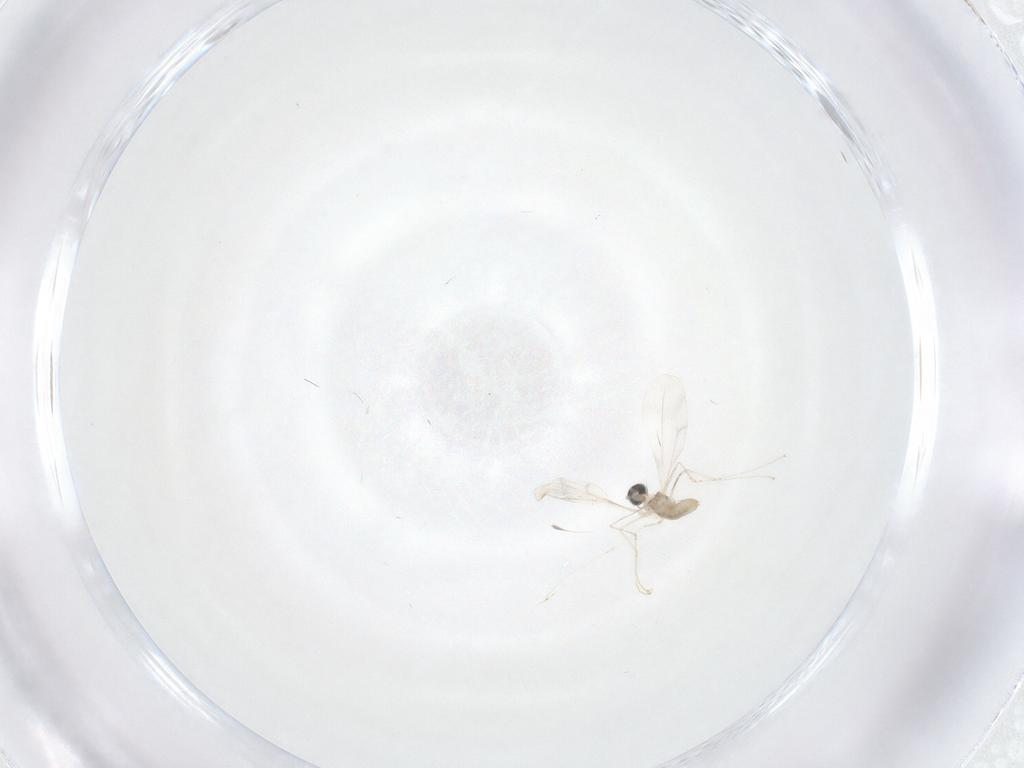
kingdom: Animalia
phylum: Arthropoda
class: Insecta
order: Diptera
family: Cecidomyiidae
